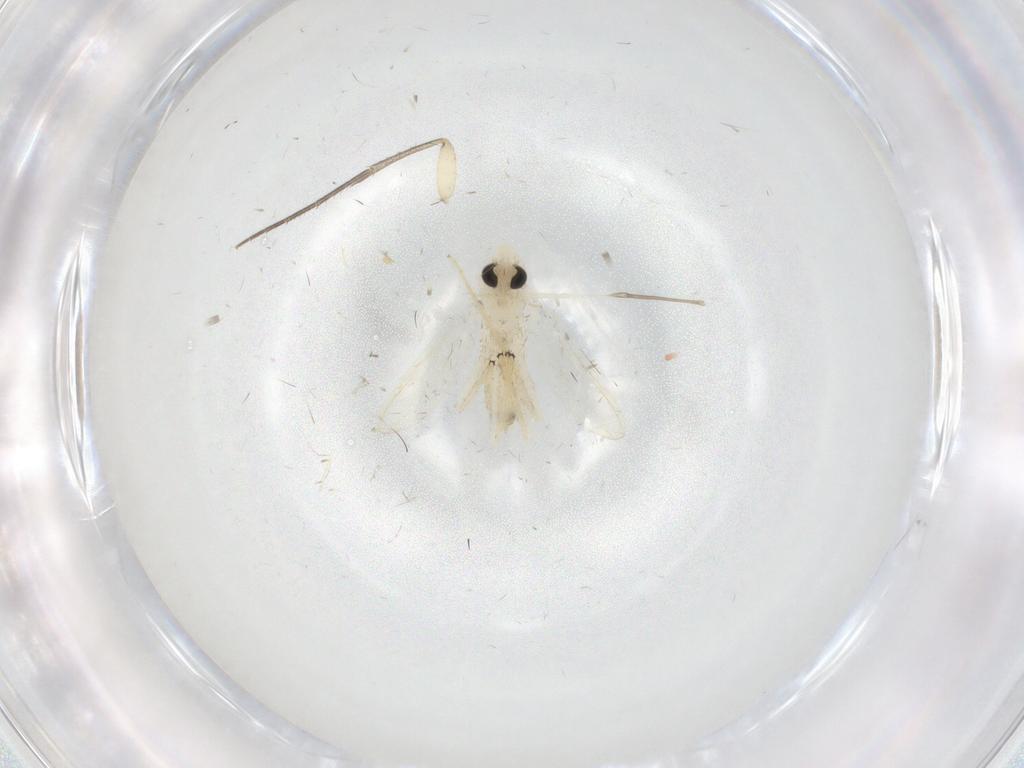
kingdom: Animalia
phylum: Arthropoda
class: Insecta
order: Diptera
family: Chironomidae
